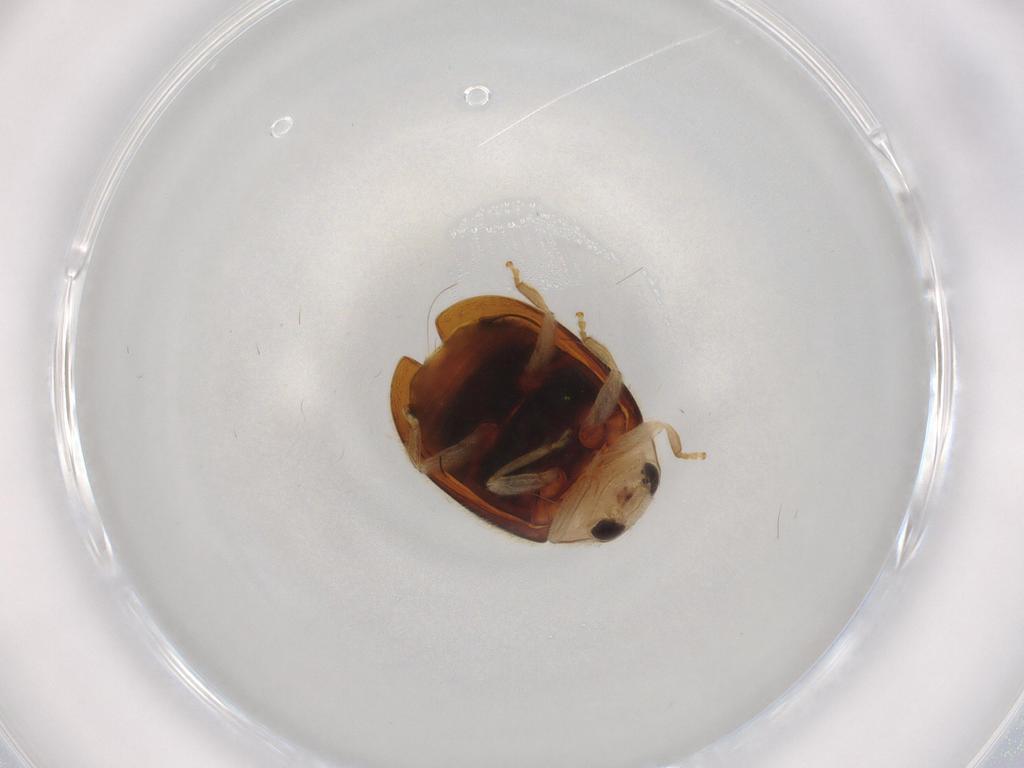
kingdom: Animalia
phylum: Arthropoda
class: Insecta
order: Coleoptera
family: Coccinellidae
